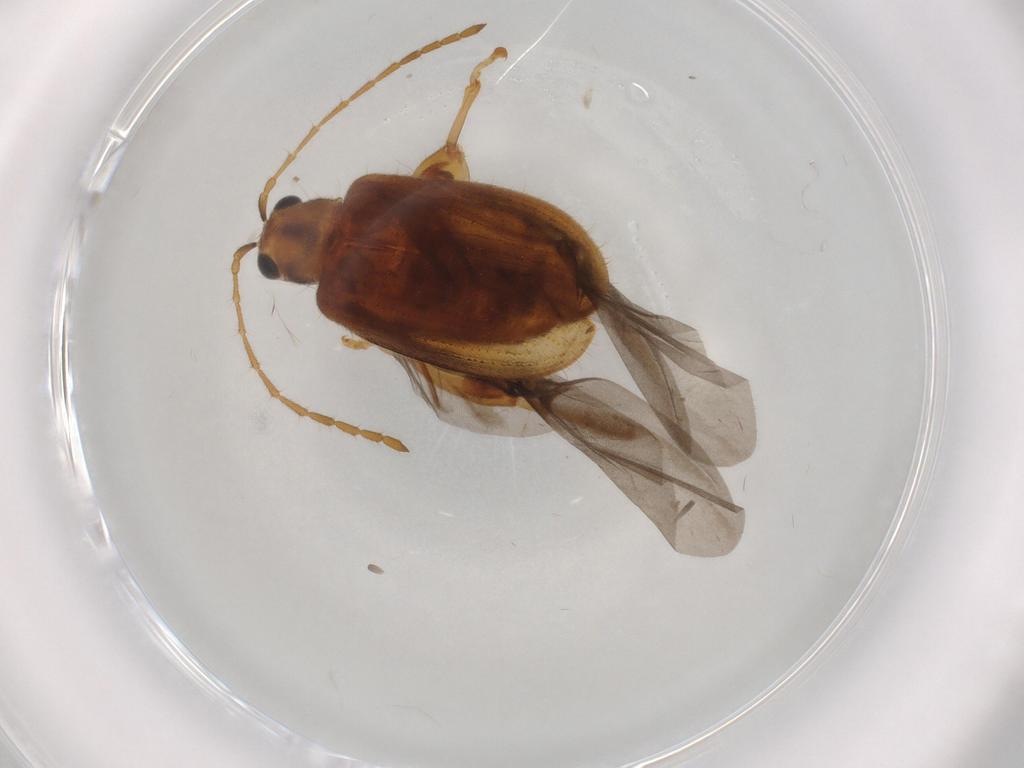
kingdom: Animalia
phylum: Arthropoda
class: Insecta
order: Coleoptera
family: Chrysomelidae
